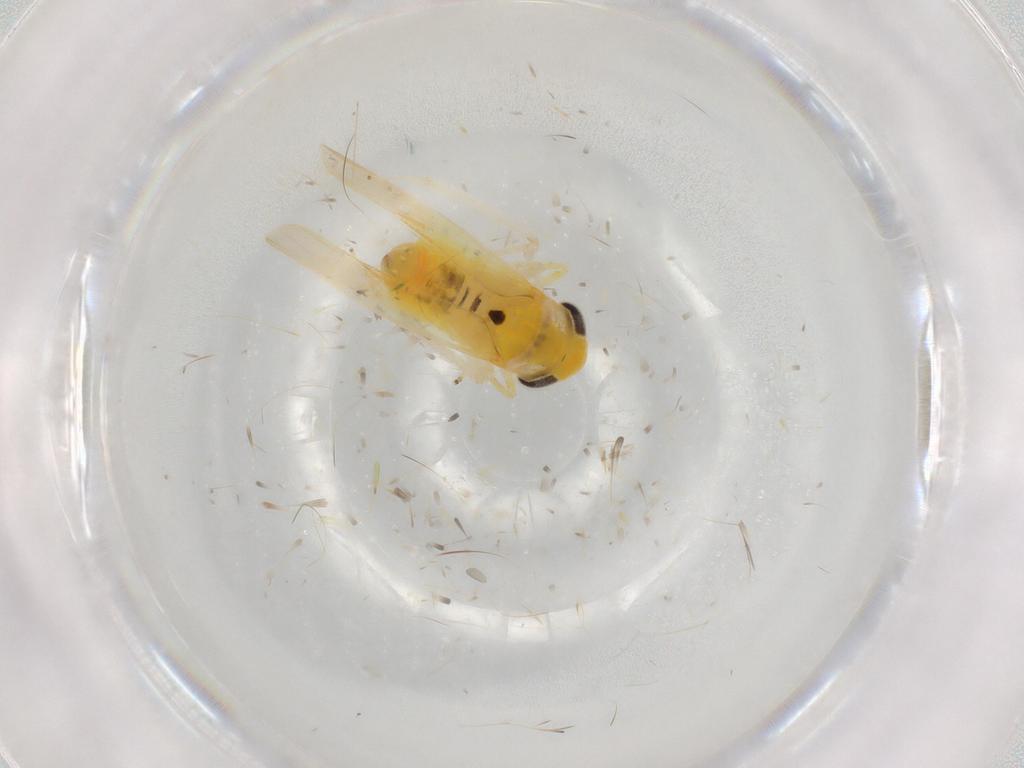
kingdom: Animalia
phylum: Arthropoda
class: Insecta
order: Hemiptera
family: Cicadellidae
